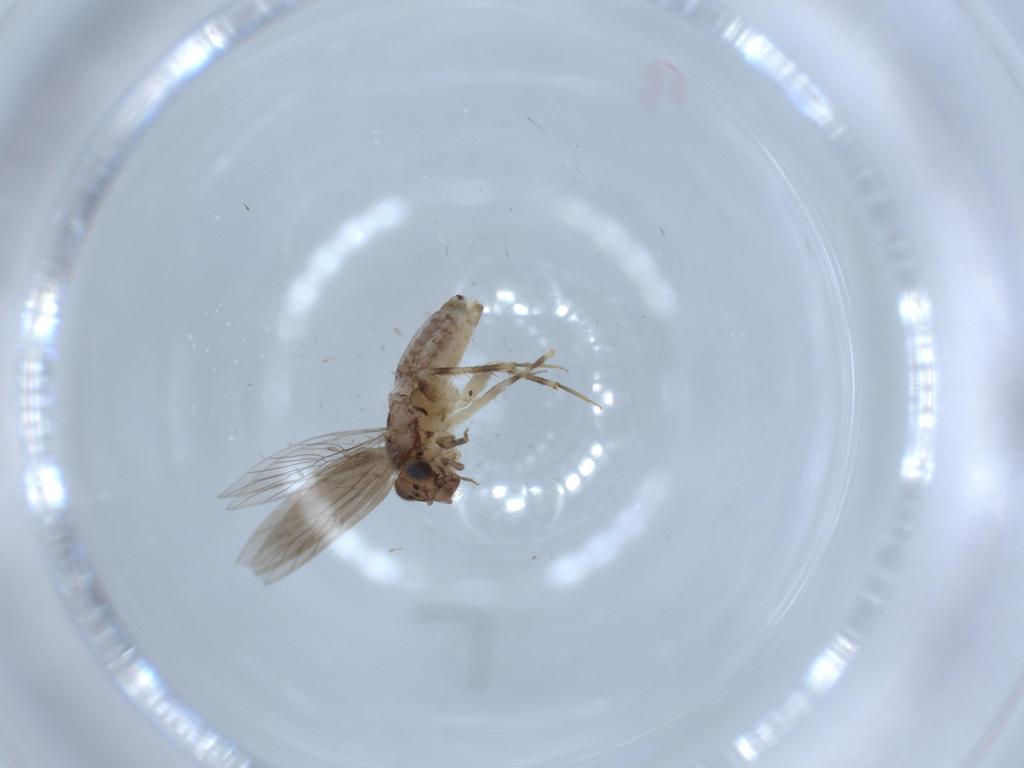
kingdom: Animalia
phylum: Arthropoda
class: Insecta
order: Psocodea
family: Lepidopsocidae
